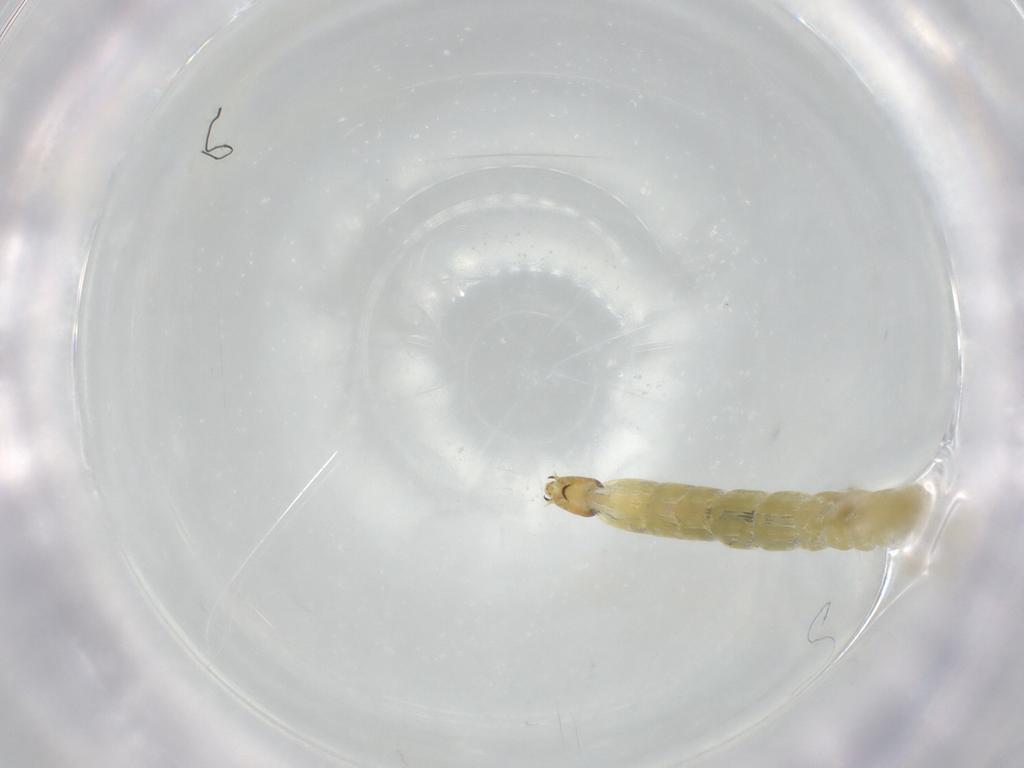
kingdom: Animalia
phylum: Arthropoda
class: Insecta
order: Diptera
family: Chironomidae
